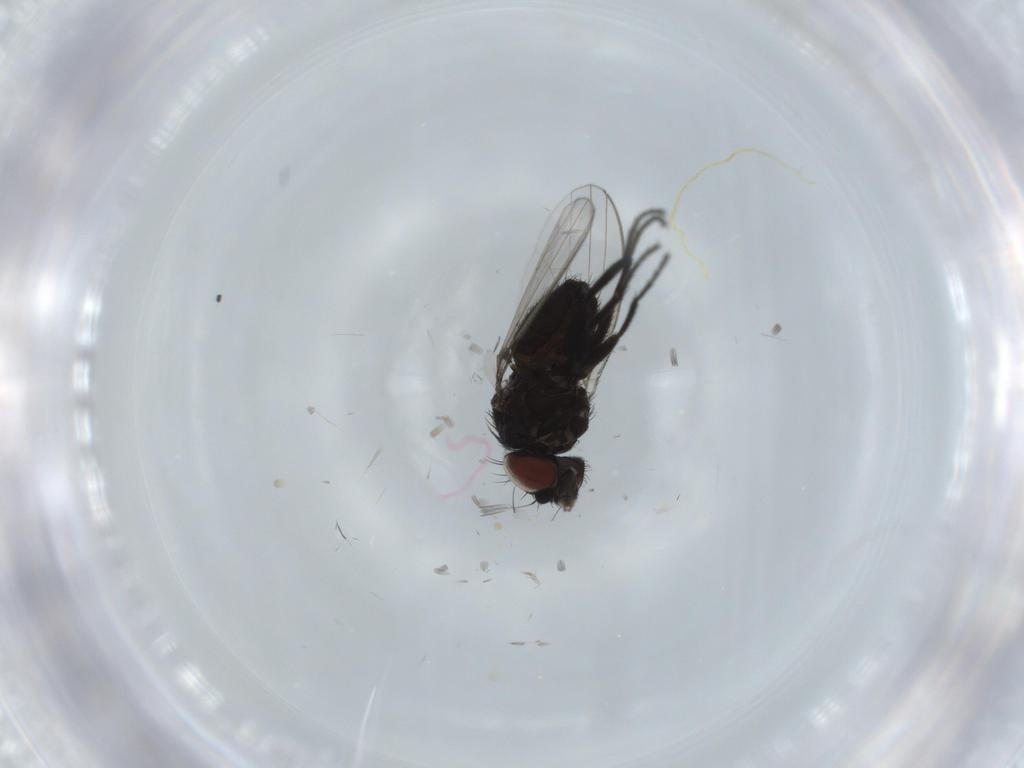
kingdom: Animalia
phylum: Arthropoda
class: Insecta
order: Diptera
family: Milichiidae
